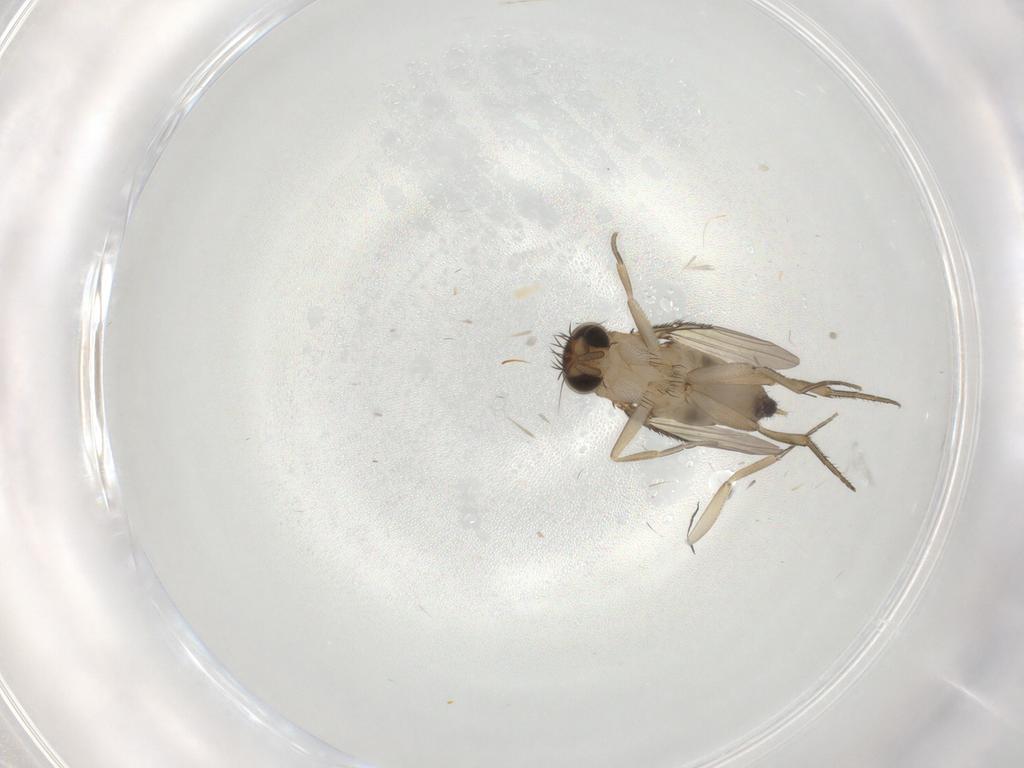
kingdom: Animalia
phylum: Arthropoda
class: Insecta
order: Diptera
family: Phoridae
